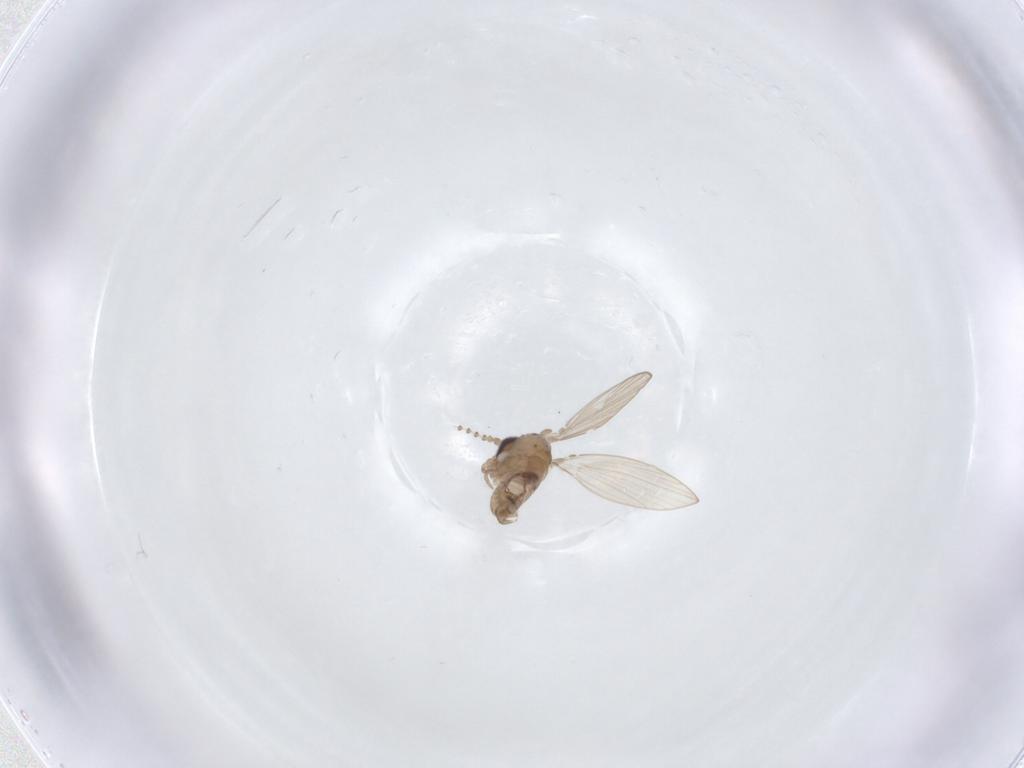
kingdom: Animalia
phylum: Arthropoda
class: Insecta
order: Diptera
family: Psychodidae
